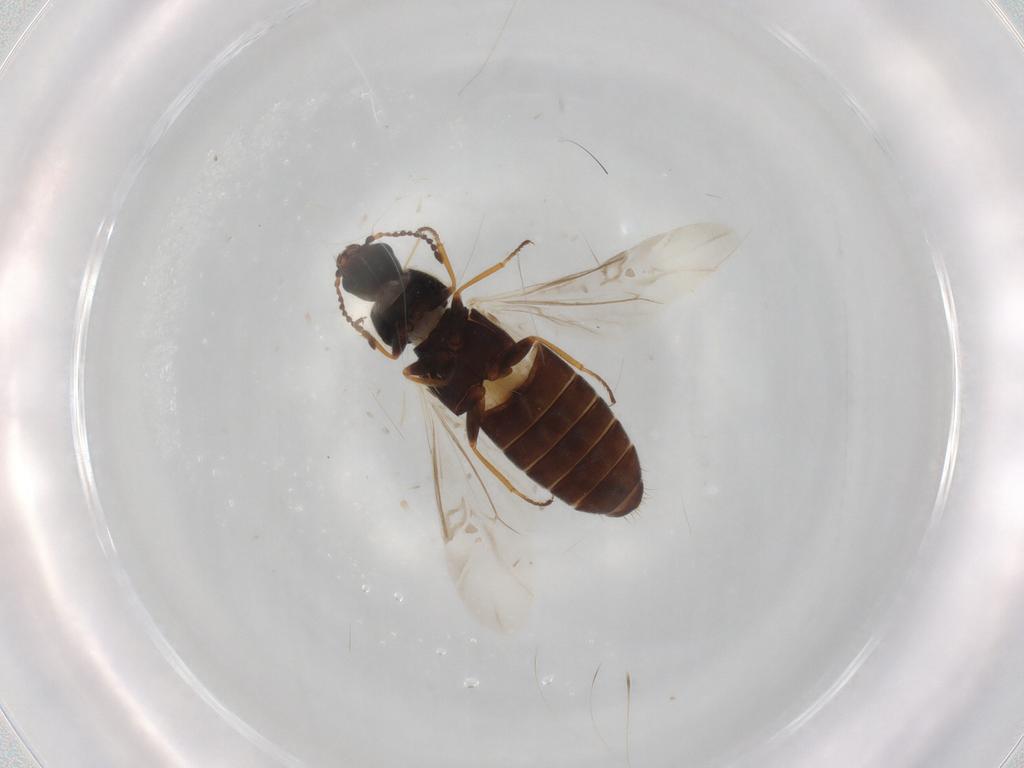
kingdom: Animalia
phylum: Arthropoda
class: Insecta
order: Coleoptera
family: Dasytidae
